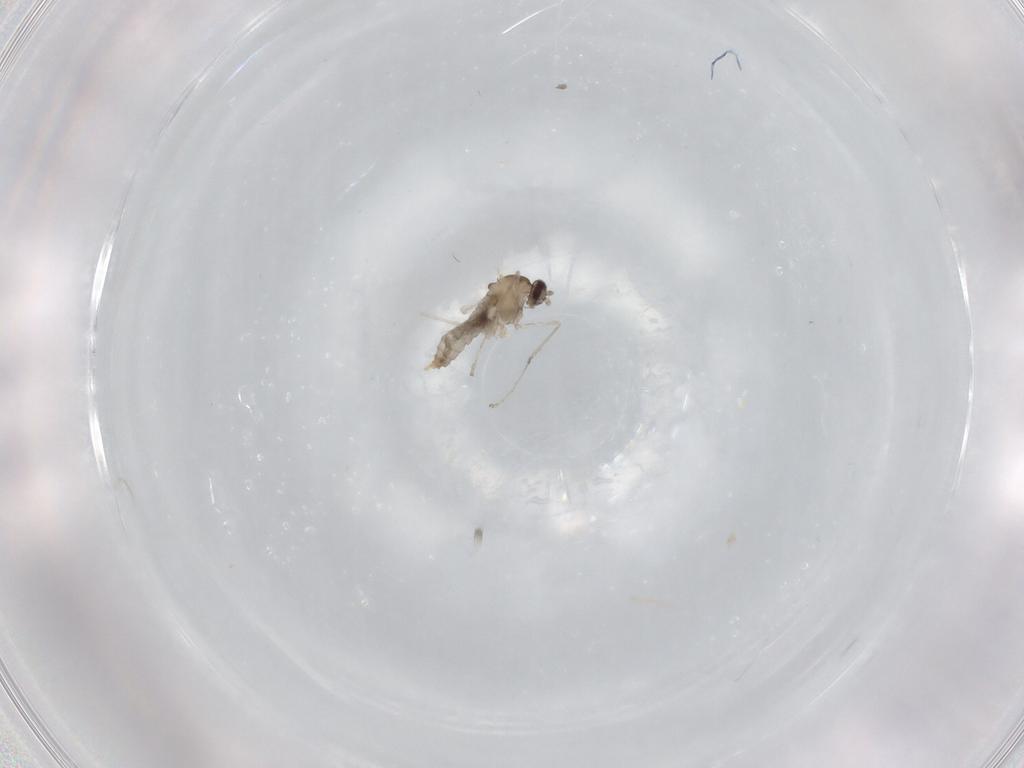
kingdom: Animalia
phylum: Arthropoda
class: Insecta
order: Diptera
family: Cecidomyiidae
